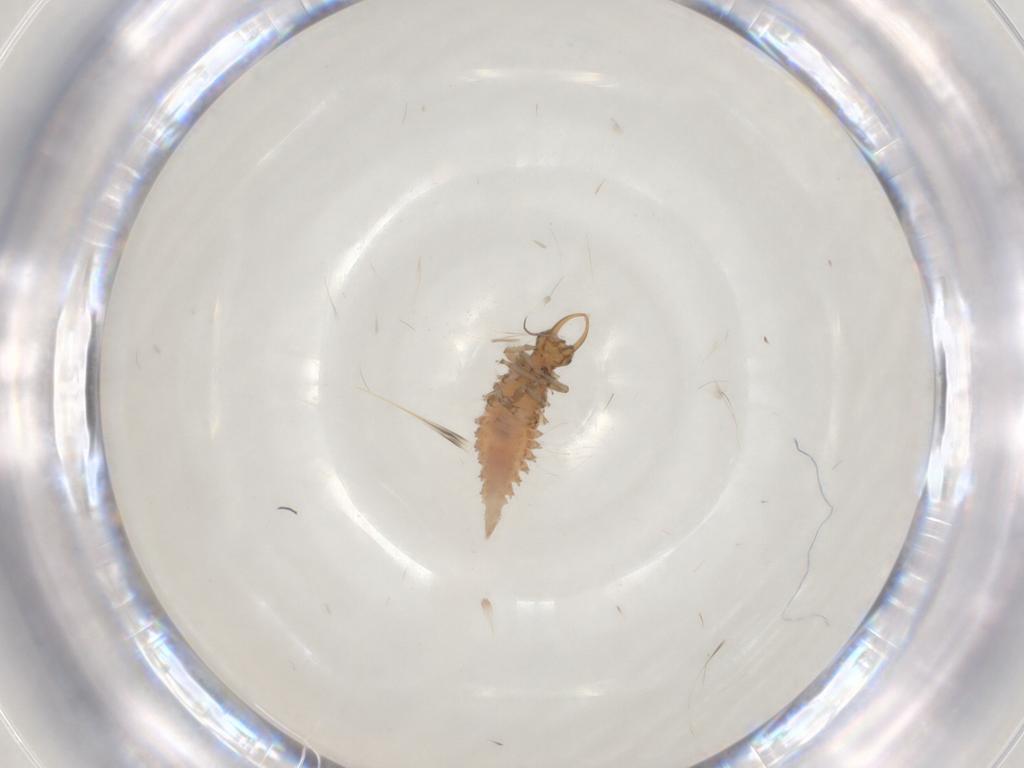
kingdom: Animalia
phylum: Arthropoda
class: Insecta
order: Neuroptera
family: Chrysopidae
